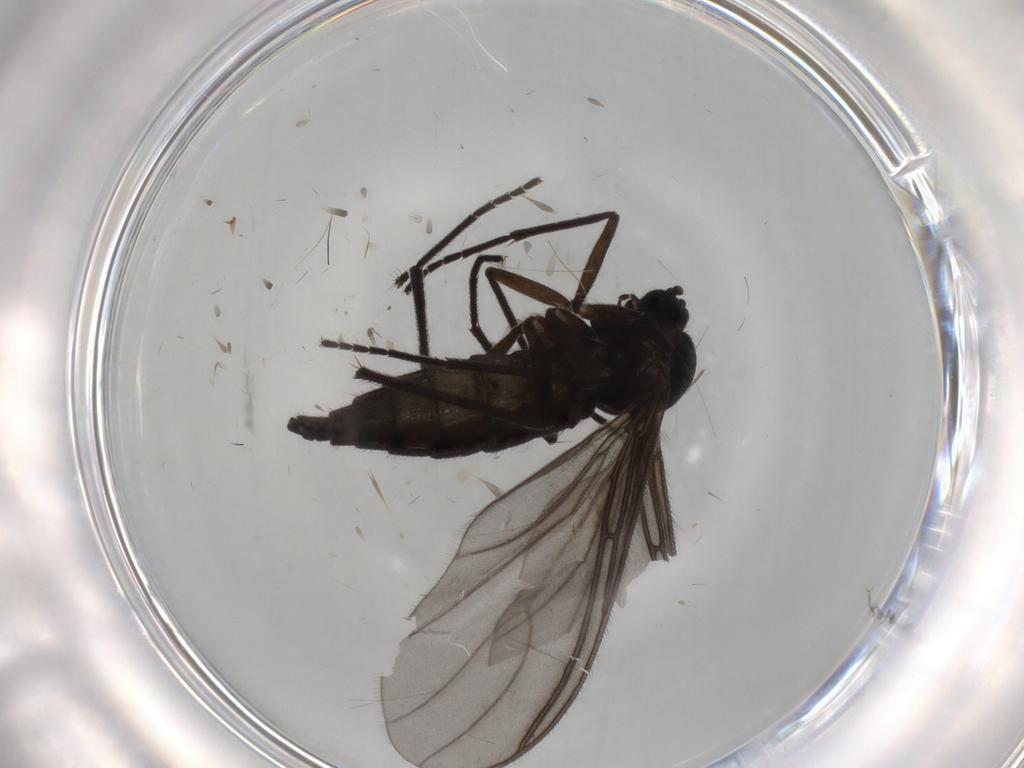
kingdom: Animalia
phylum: Arthropoda
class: Insecta
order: Diptera
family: Sciaridae
